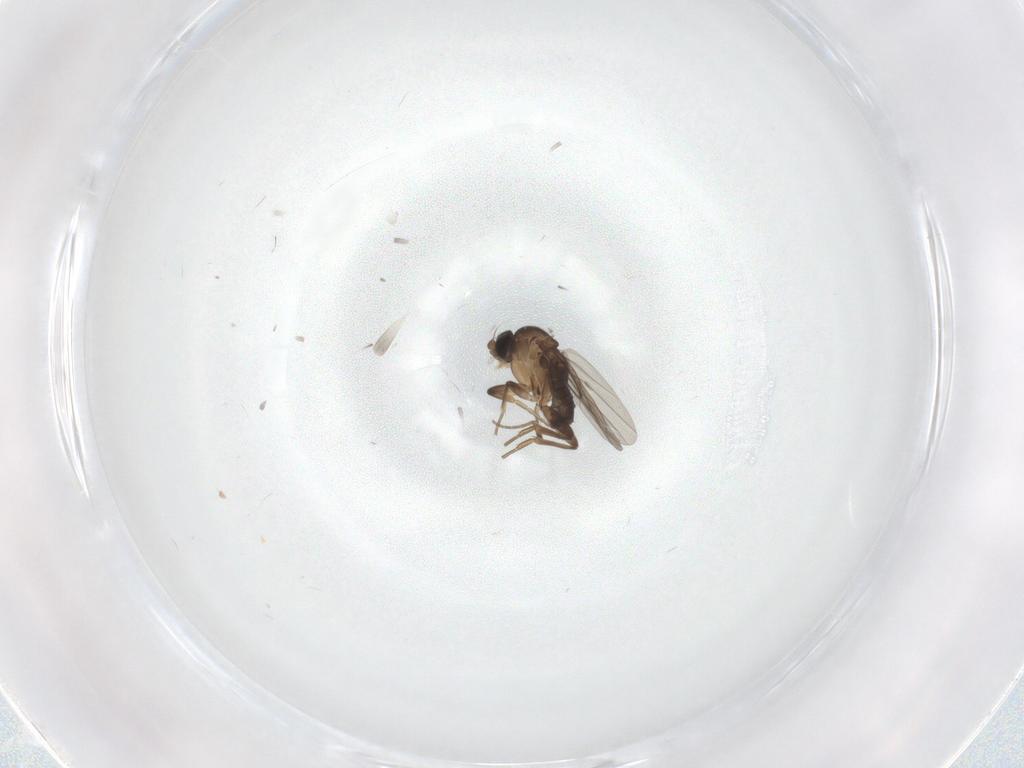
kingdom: Animalia
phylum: Arthropoda
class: Insecta
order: Diptera
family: Phoridae
